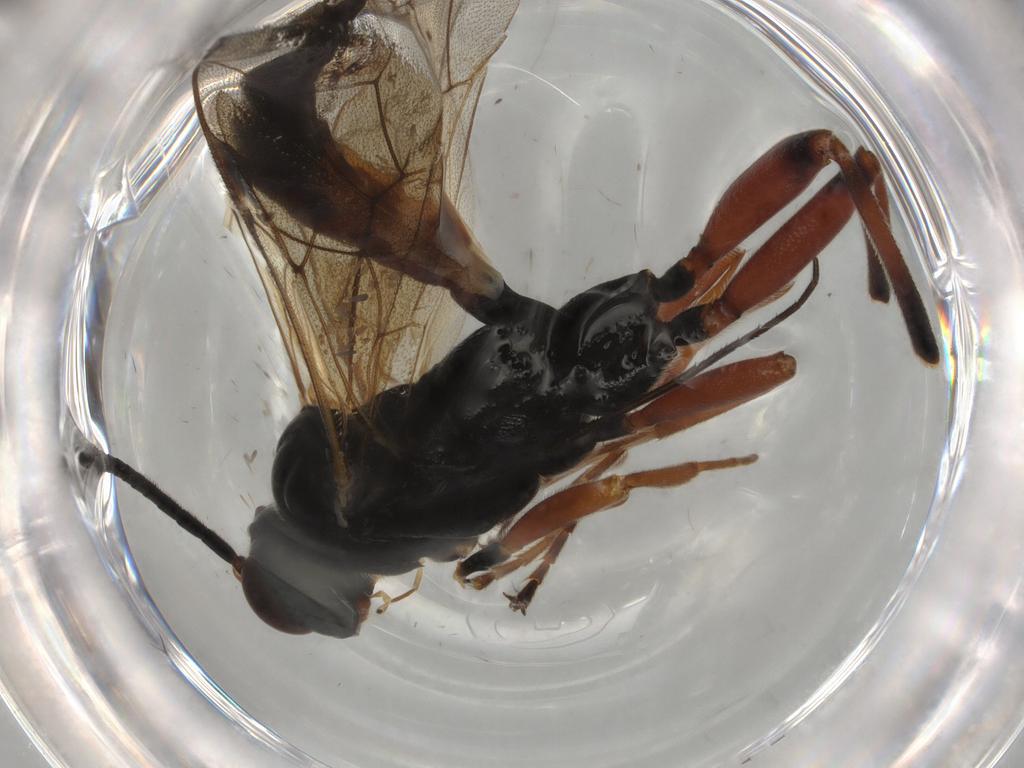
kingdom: Animalia
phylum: Arthropoda
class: Insecta
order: Hymenoptera
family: Ichneumonidae
